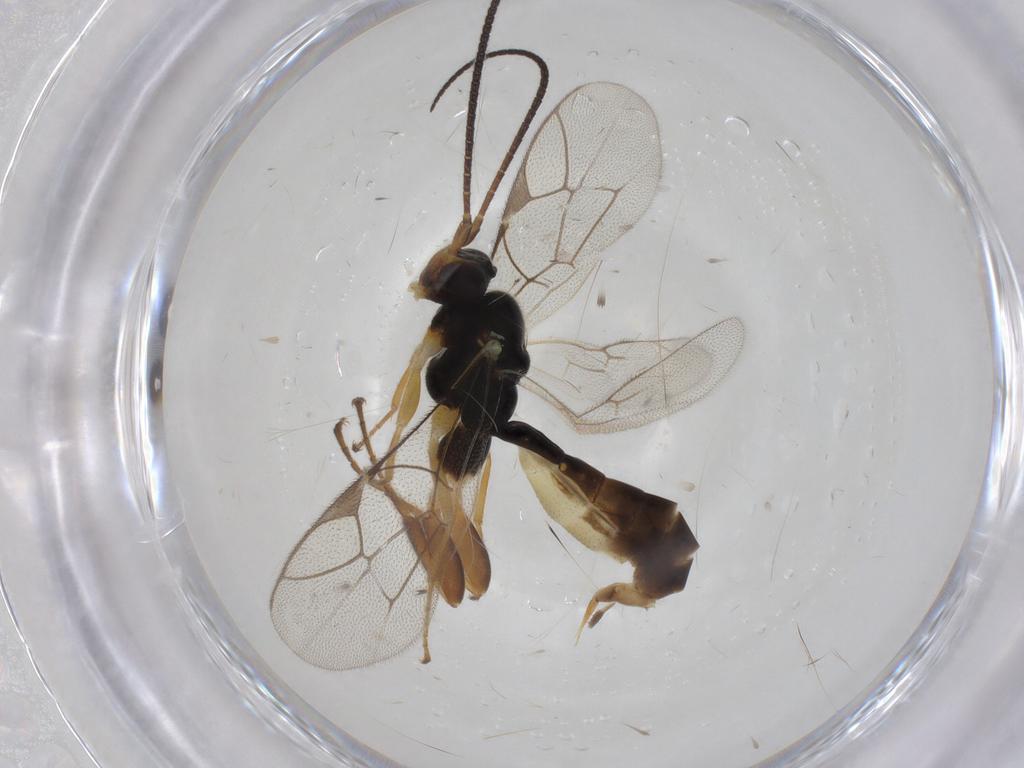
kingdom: Animalia
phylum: Arthropoda
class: Insecta
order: Hymenoptera
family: Ichneumonidae
